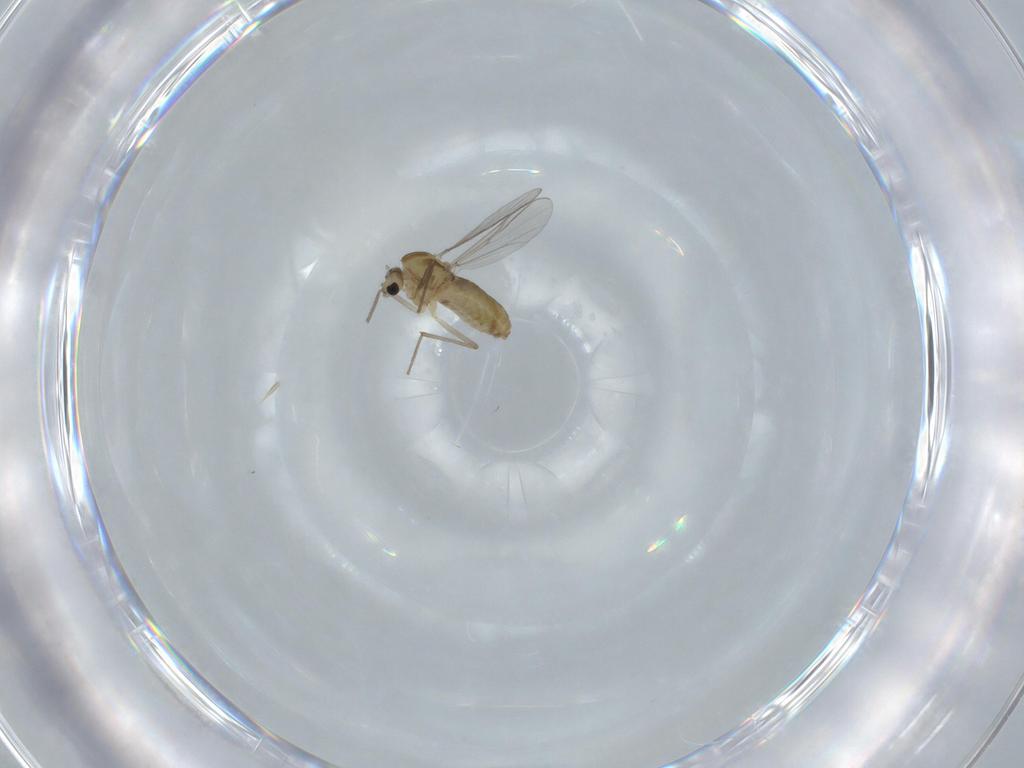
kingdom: Animalia
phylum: Arthropoda
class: Insecta
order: Diptera
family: Chironomidae
